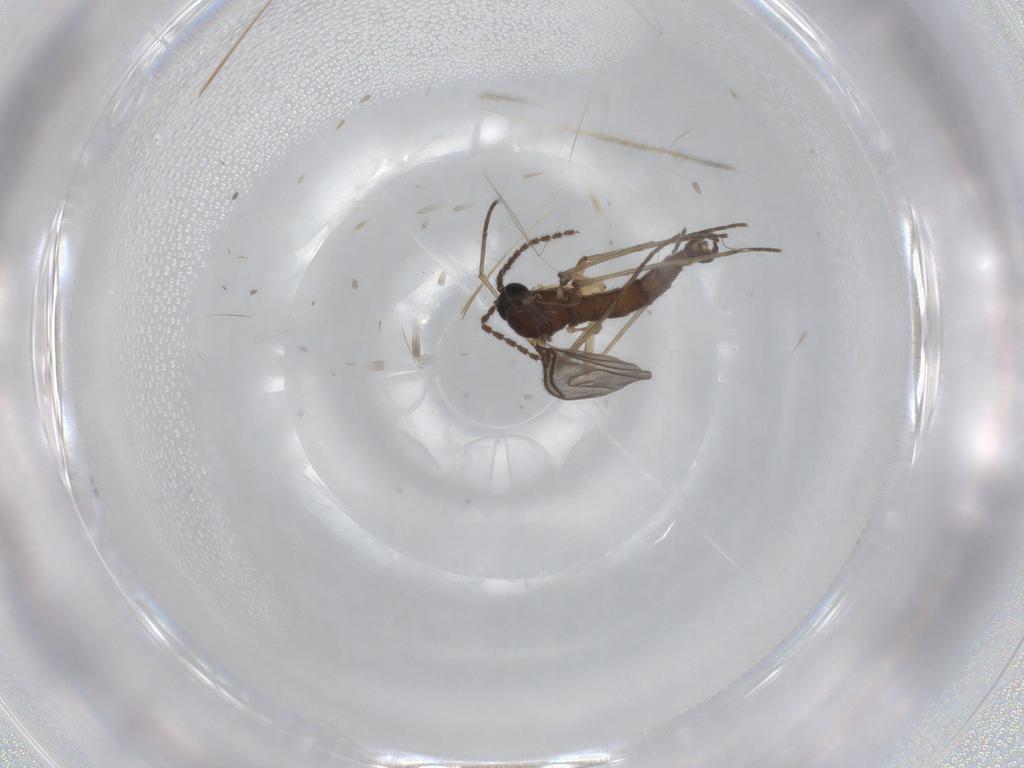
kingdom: Animalia
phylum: Arthropoda
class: Insecta
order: Diptera
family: Sciaridae
